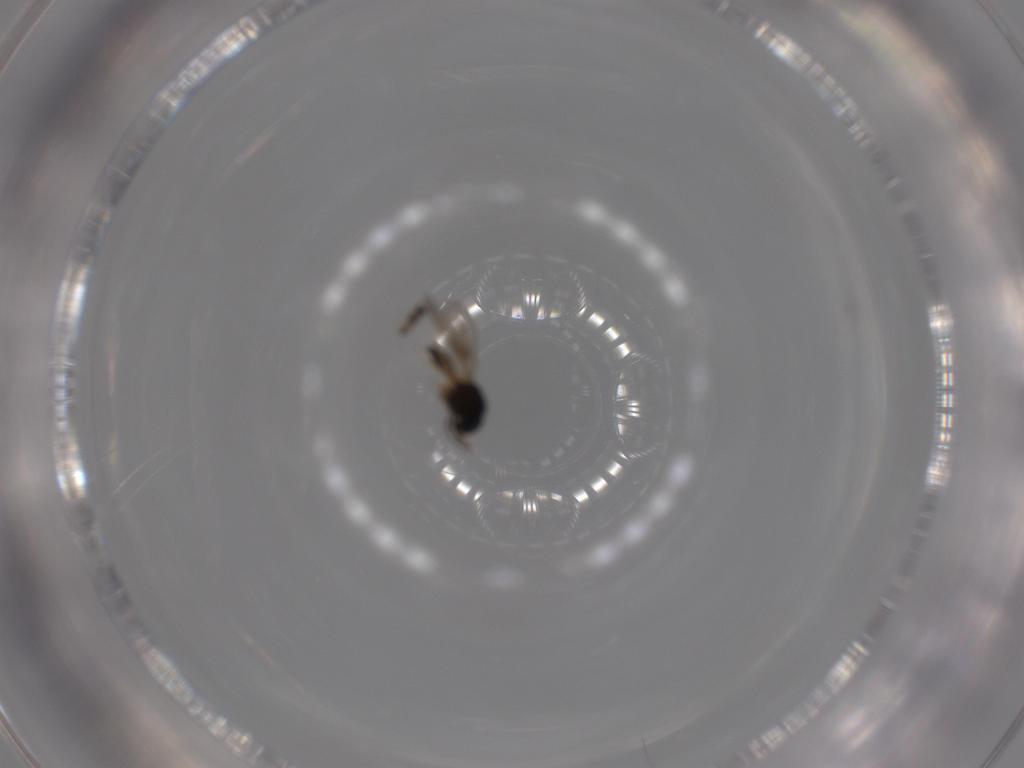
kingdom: Animalia
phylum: Arthropoda
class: Insecta
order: Hymenoptera
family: Scelionidae
